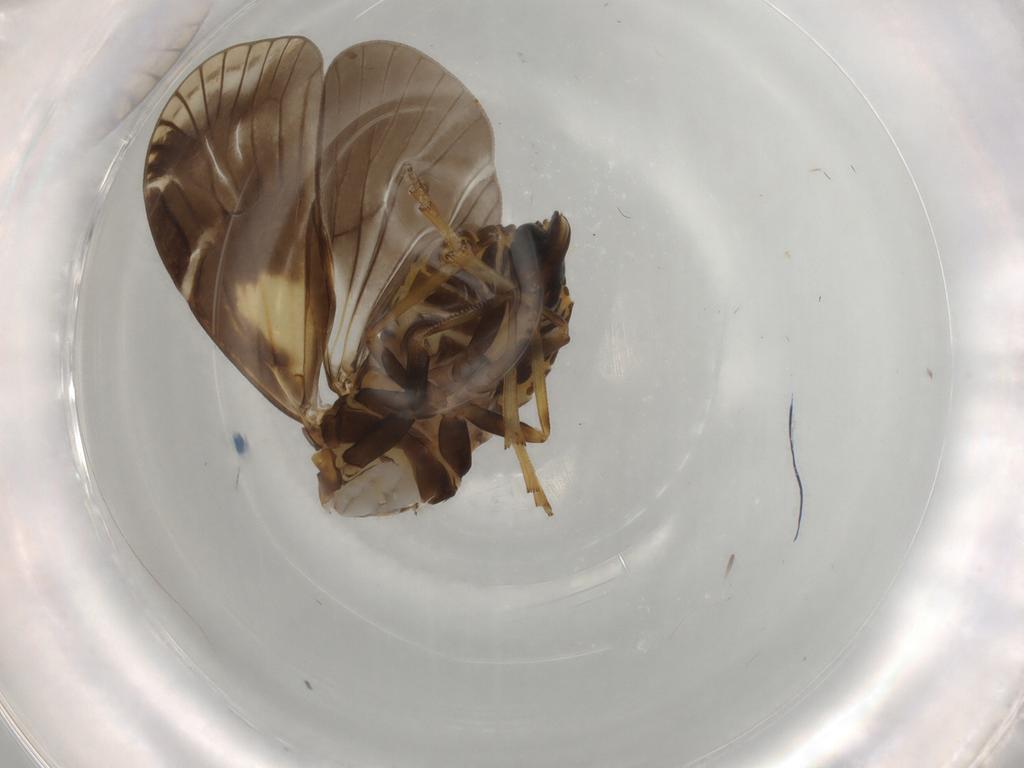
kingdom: Animalia
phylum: Arthropoda
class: Insecta
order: Hemiptera
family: Cixiidae
